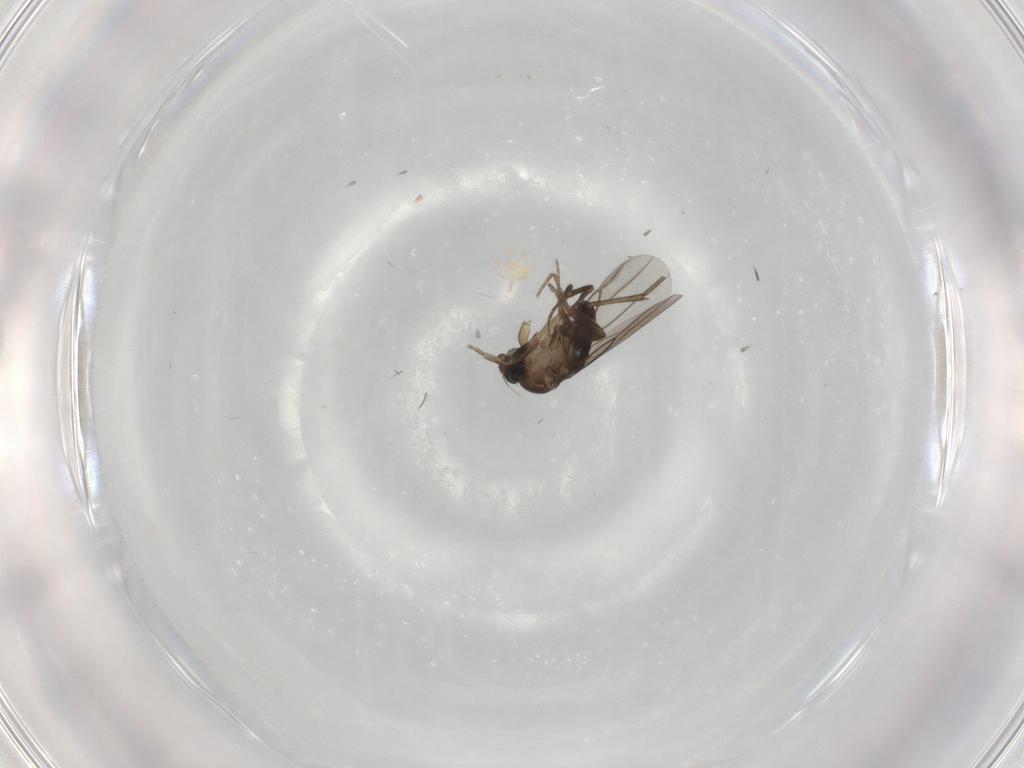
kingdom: Animalia
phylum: Arthropoda
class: Insecta
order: Diptera
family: Phoridae
